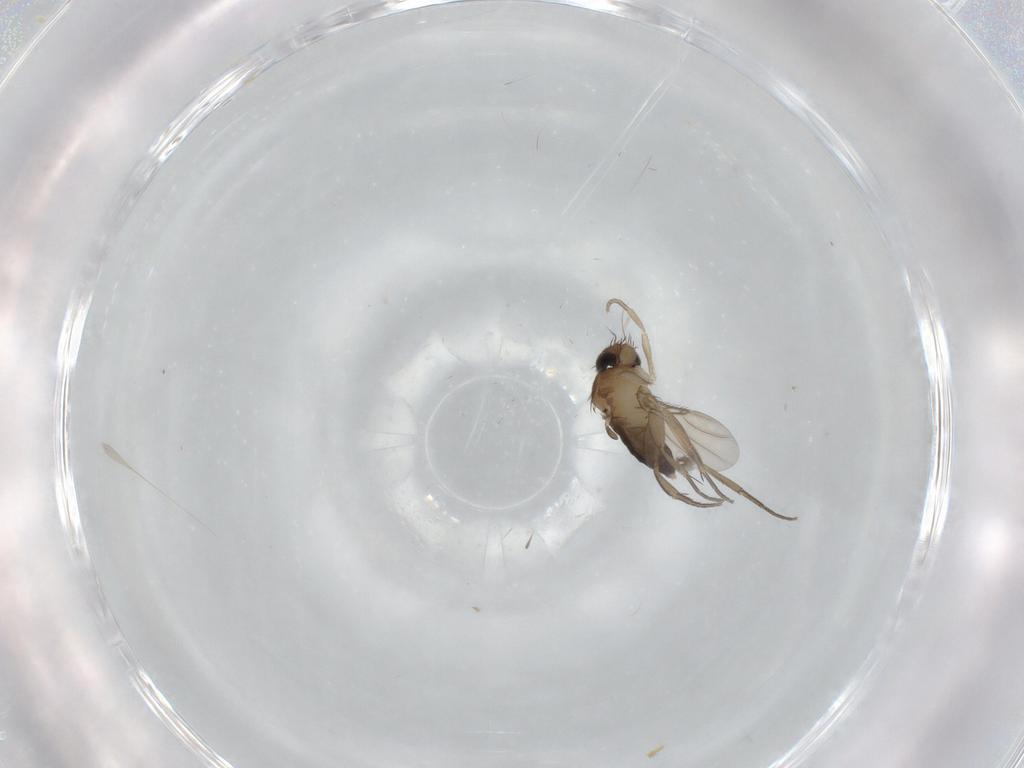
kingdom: Animalia
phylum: Arthropoda
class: Insecta
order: Diptera
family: Phoridae
